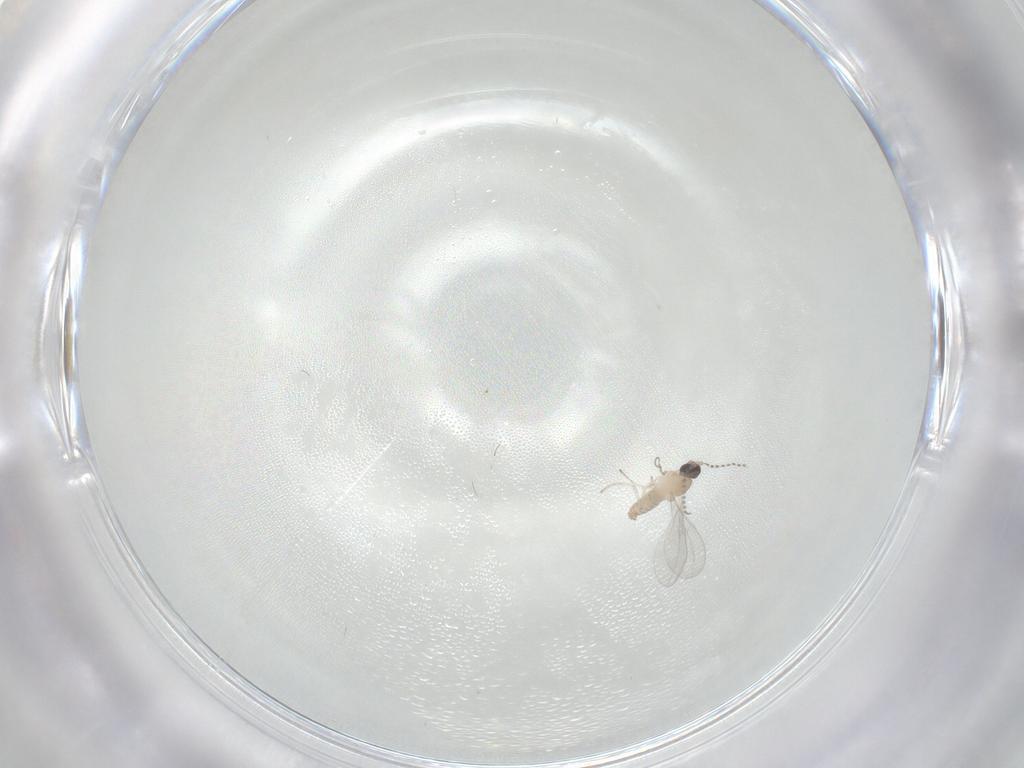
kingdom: Animalia
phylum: Arthropoda
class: Insecta
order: Diptera
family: Cecidomyiidae
